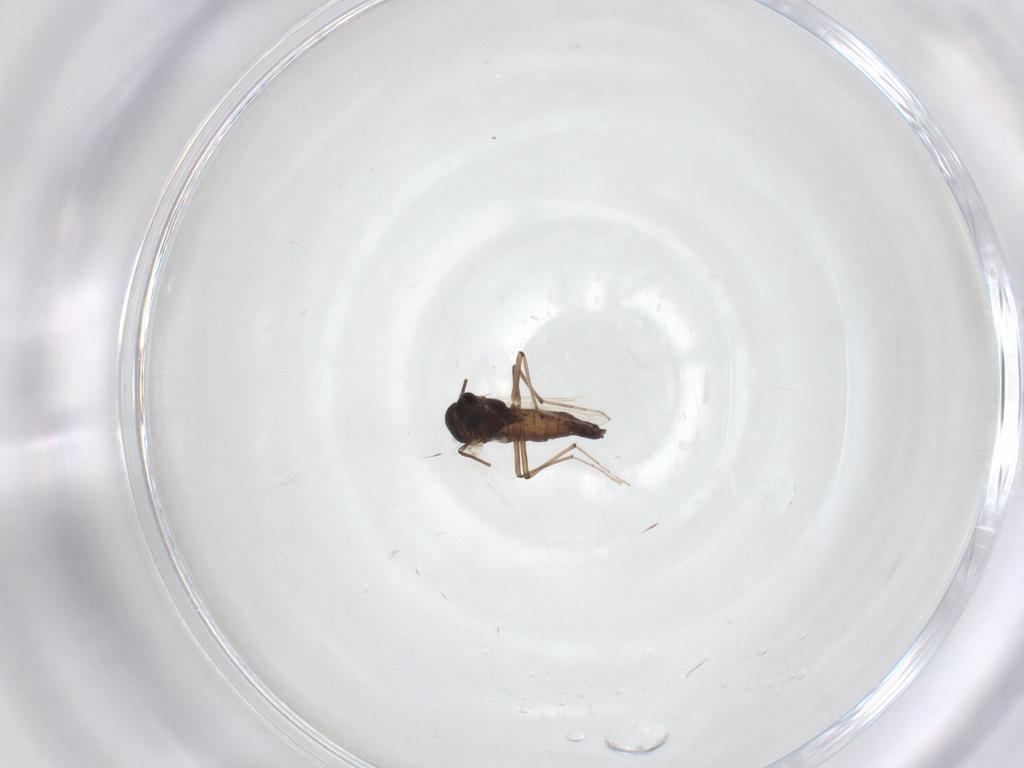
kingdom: Animalia
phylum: Arthropoda
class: Insecta
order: Diptera
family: Chironomidae
